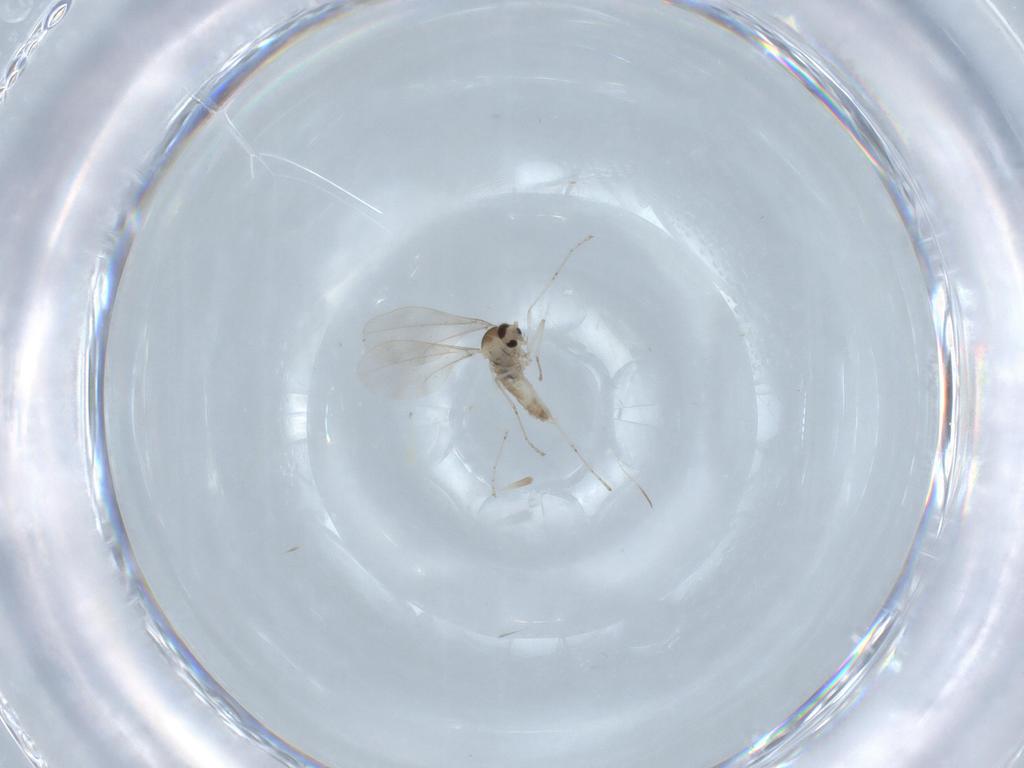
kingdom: Animalia
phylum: Arthropoda
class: Insecta
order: Diptera
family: Cecidomyiidae
